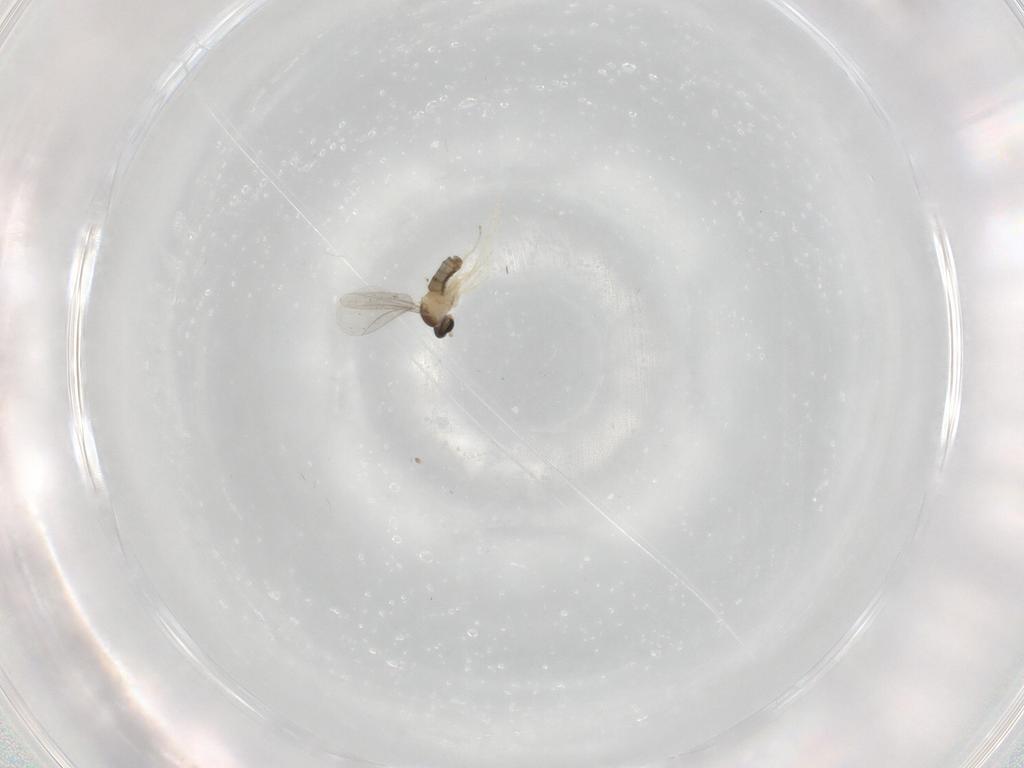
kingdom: Animalia
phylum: Arthropoda
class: Insecta
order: Diptera
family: Cecidomyiidae
